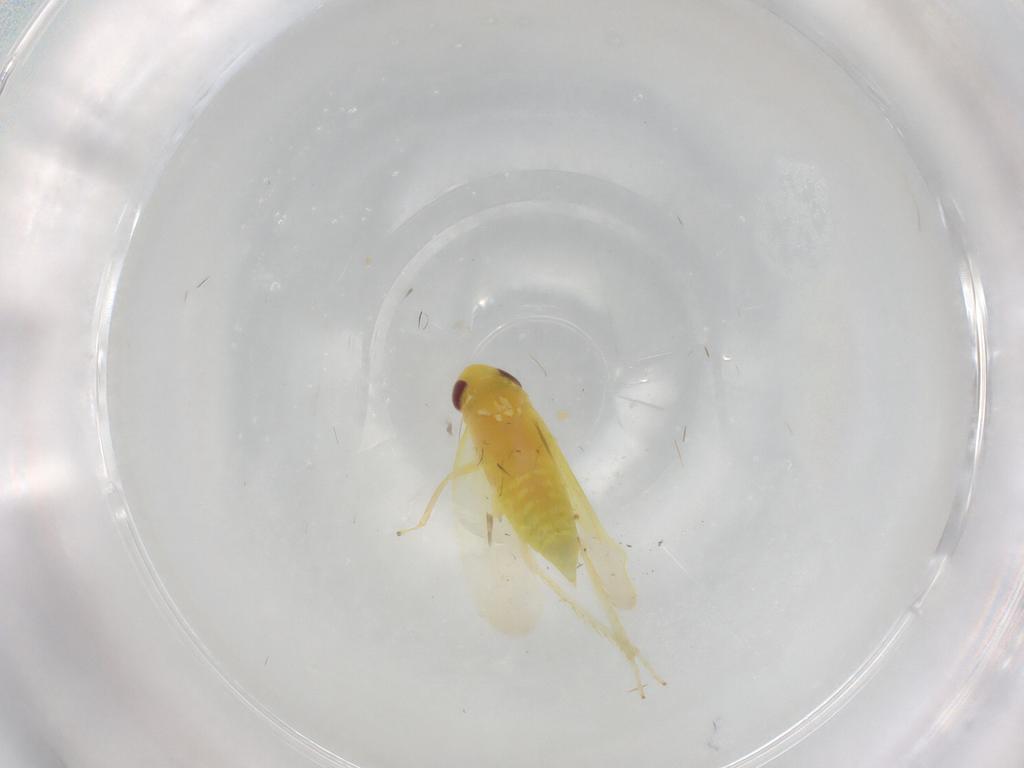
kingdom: Animalia
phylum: Arthropoda
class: Insecta
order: Hemiptera
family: Cicadellidae
